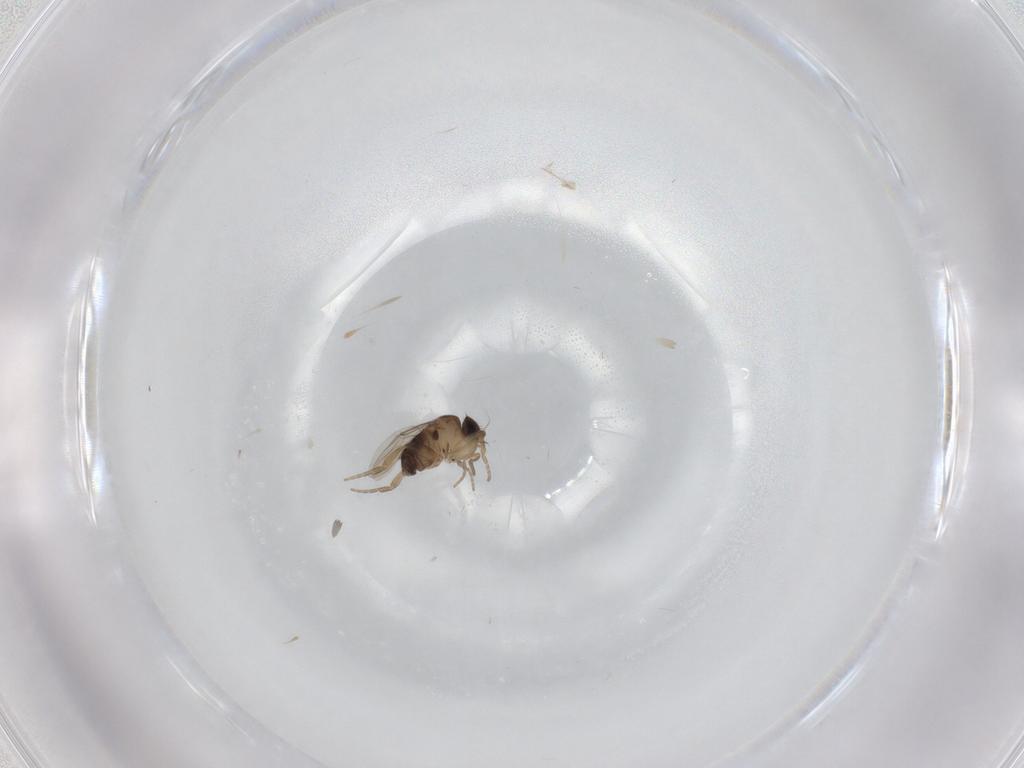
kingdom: Animalia
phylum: Arthropoda
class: Insecta
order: Diptera
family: Phoridae
